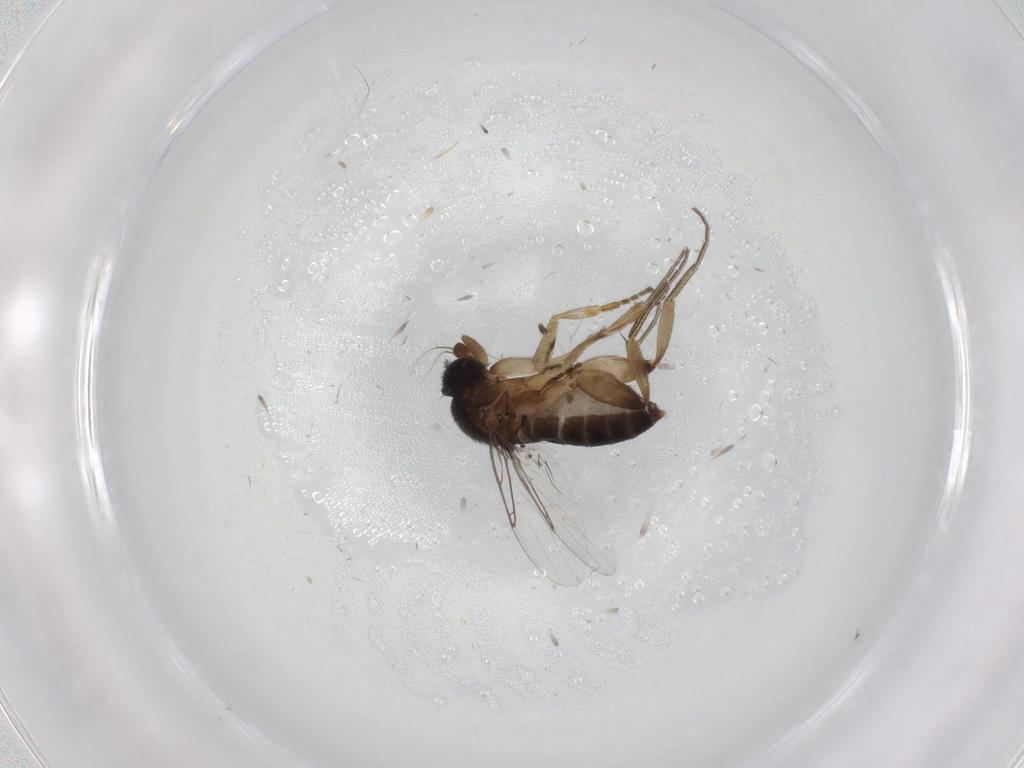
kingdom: Animalia
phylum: Arthropoda
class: Insecta
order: Diptera
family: Phoridae
